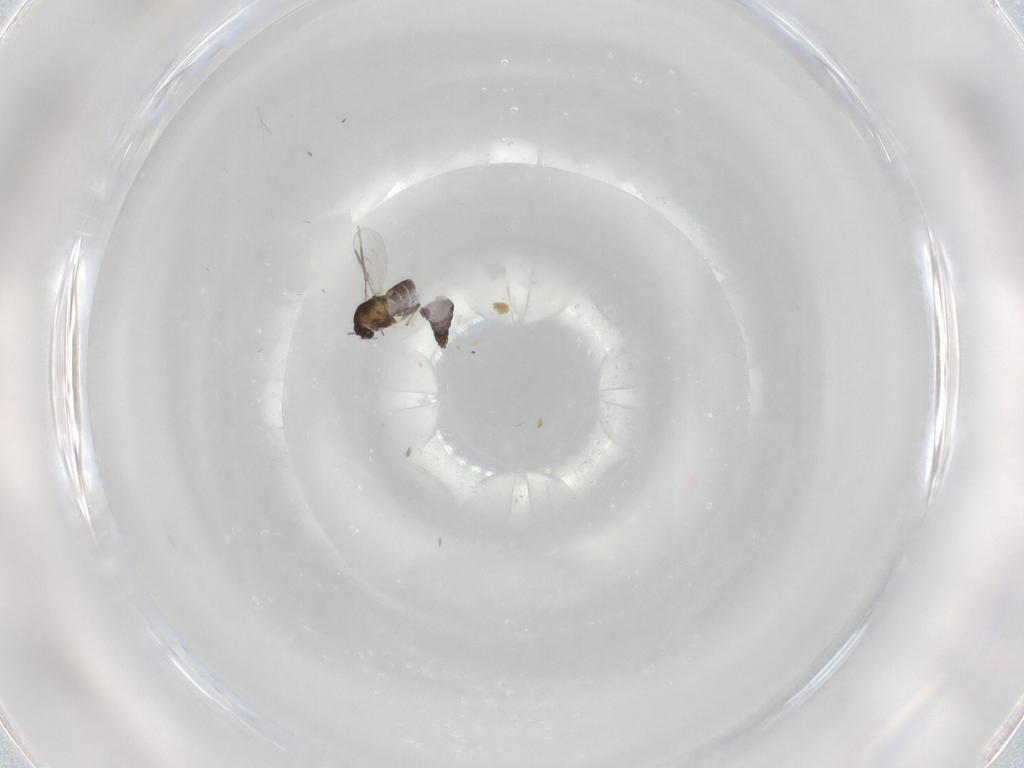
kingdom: Animalia
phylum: Arthropoda
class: Insecta
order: Diptera
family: Chironomidae
